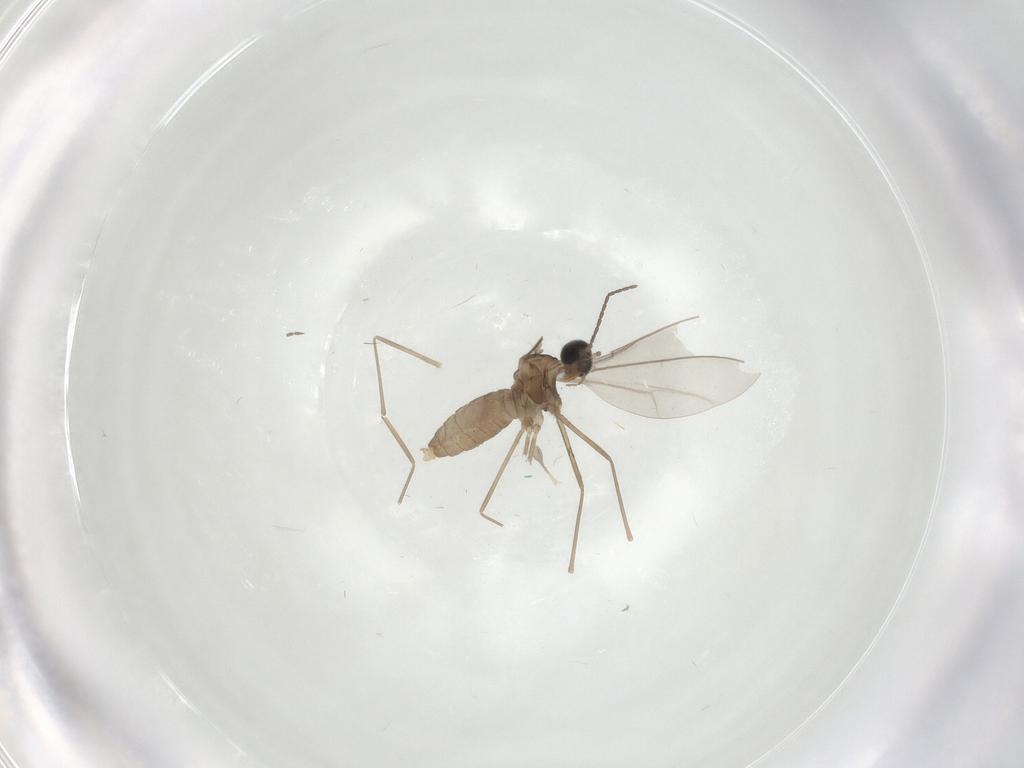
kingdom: Animalia
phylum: Arthropoda
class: Insecta
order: Diptera
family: Cecidomyiidae
